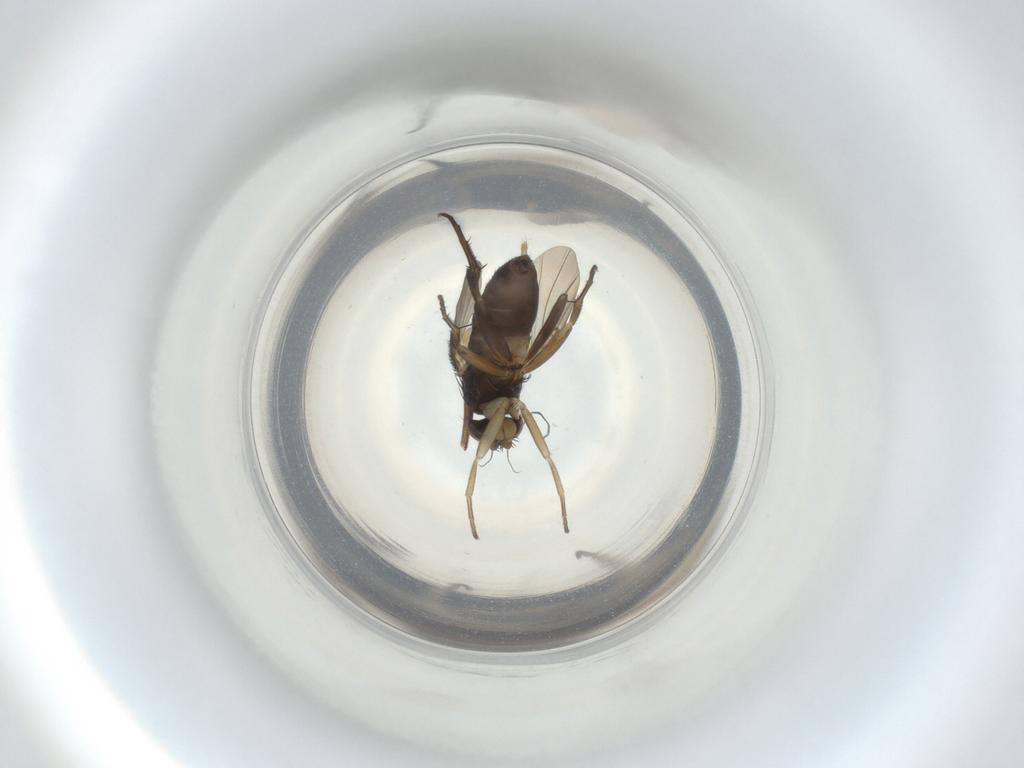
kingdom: Animalia
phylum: Arthropoda
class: Insecta
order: Diptera
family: Phoridae
